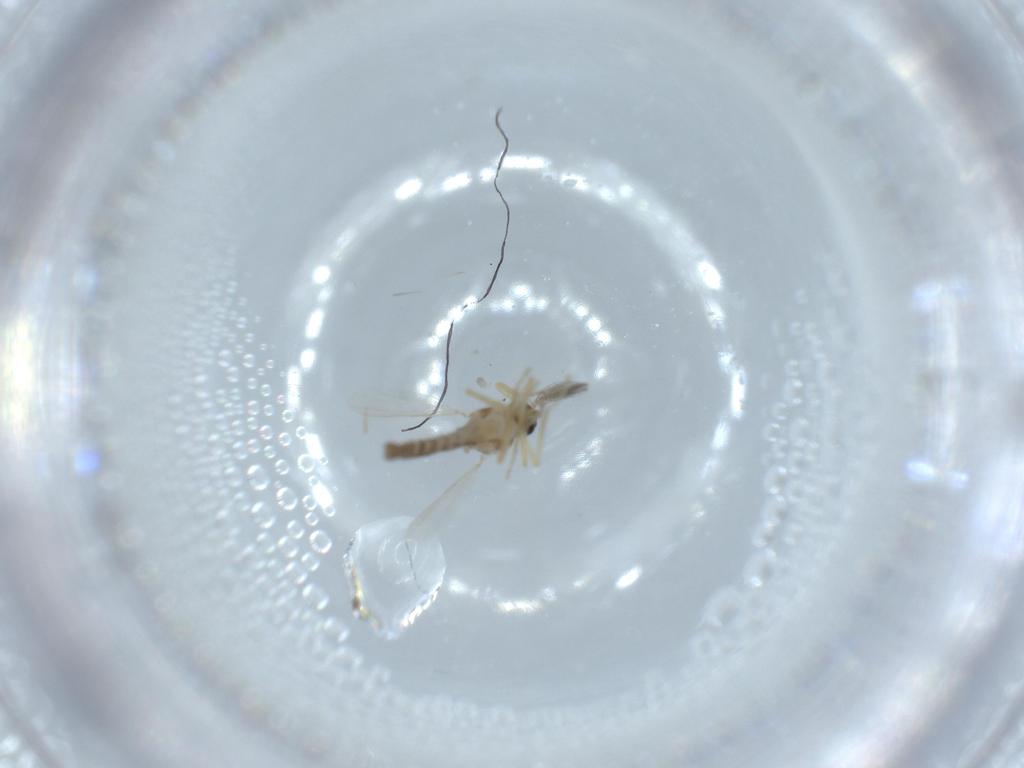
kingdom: Animalia
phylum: Arthropoda
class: Insecta
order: Diptera
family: Ceratopogonidae
